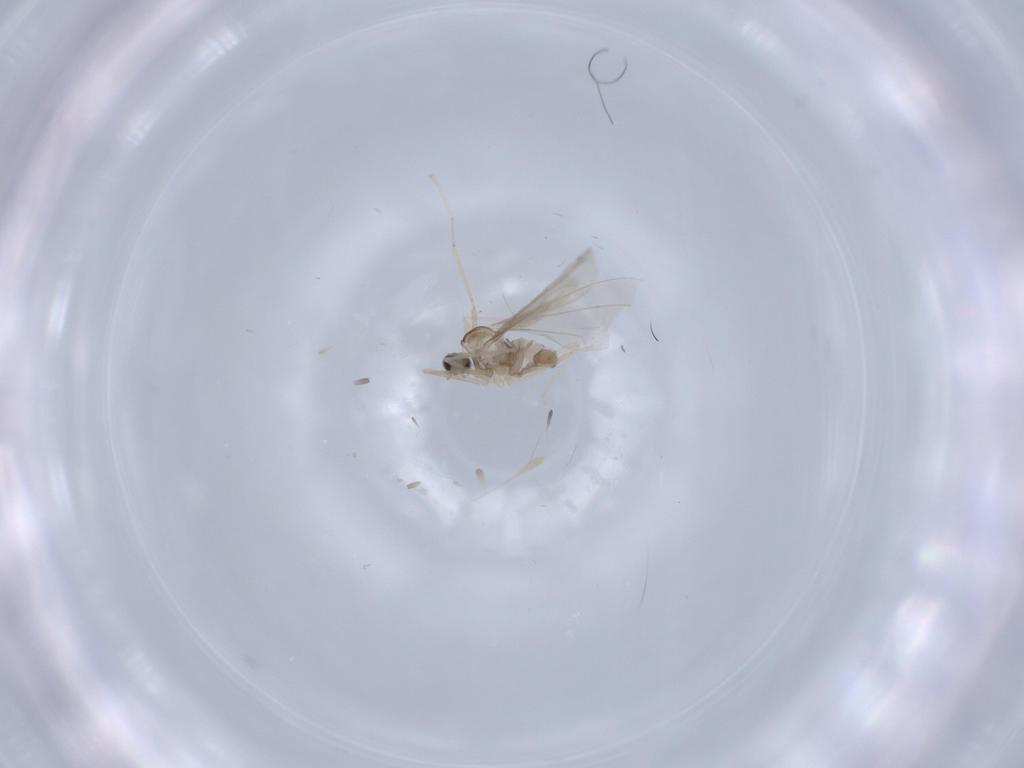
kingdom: Animalia
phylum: Arthropoda
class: Insecta
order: Diptera
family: Cecidomyiidae
